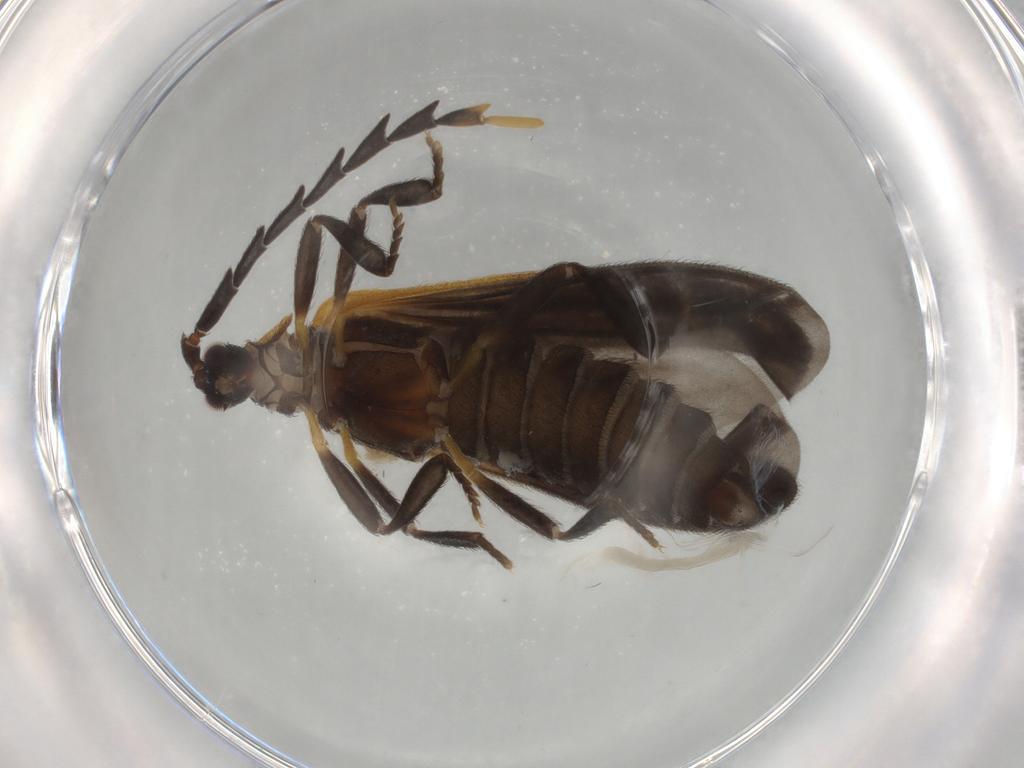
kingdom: Animalia
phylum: Arthropoda
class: Insecta
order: Coleoptera
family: Lycidae
